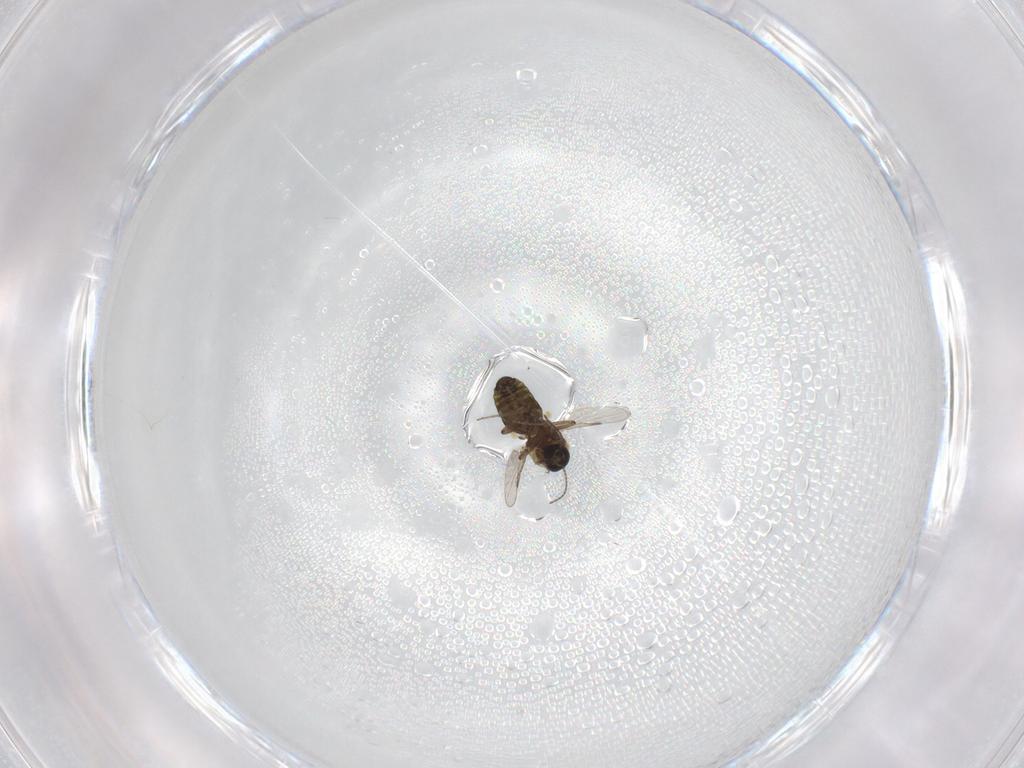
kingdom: Animalia
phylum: Arthropoda
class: Insecta
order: Diptera
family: Ceratopogonidae
